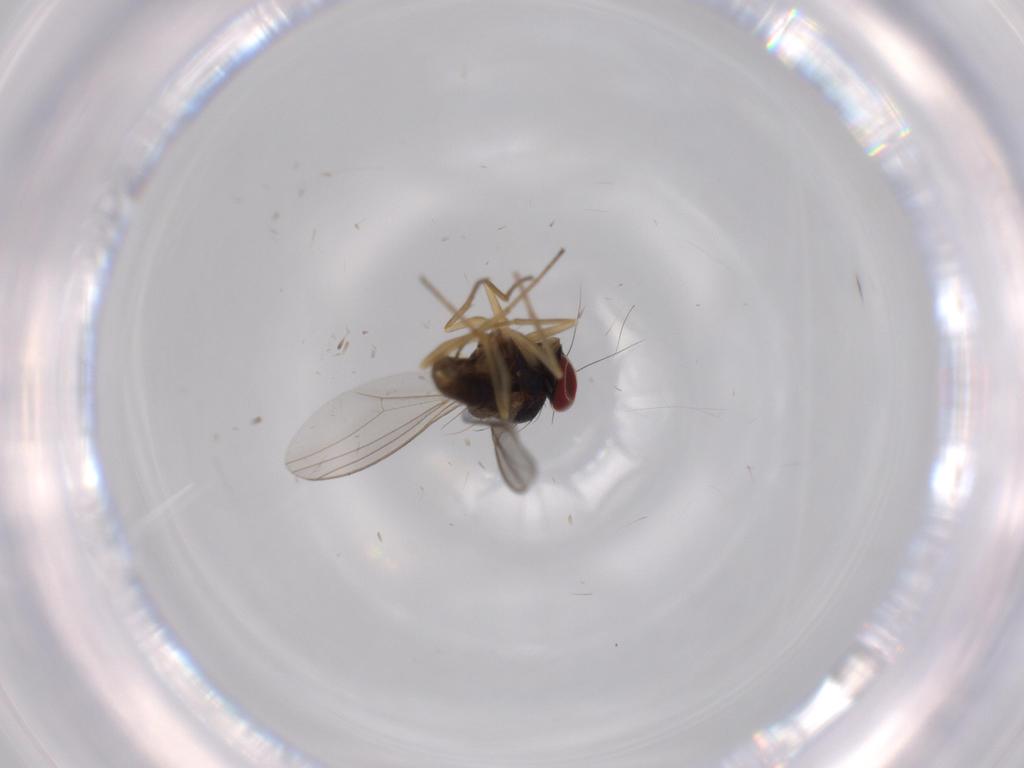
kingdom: Animalia
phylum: Arthropoda
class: Insecta
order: Diptera
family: Dolichopodidae
